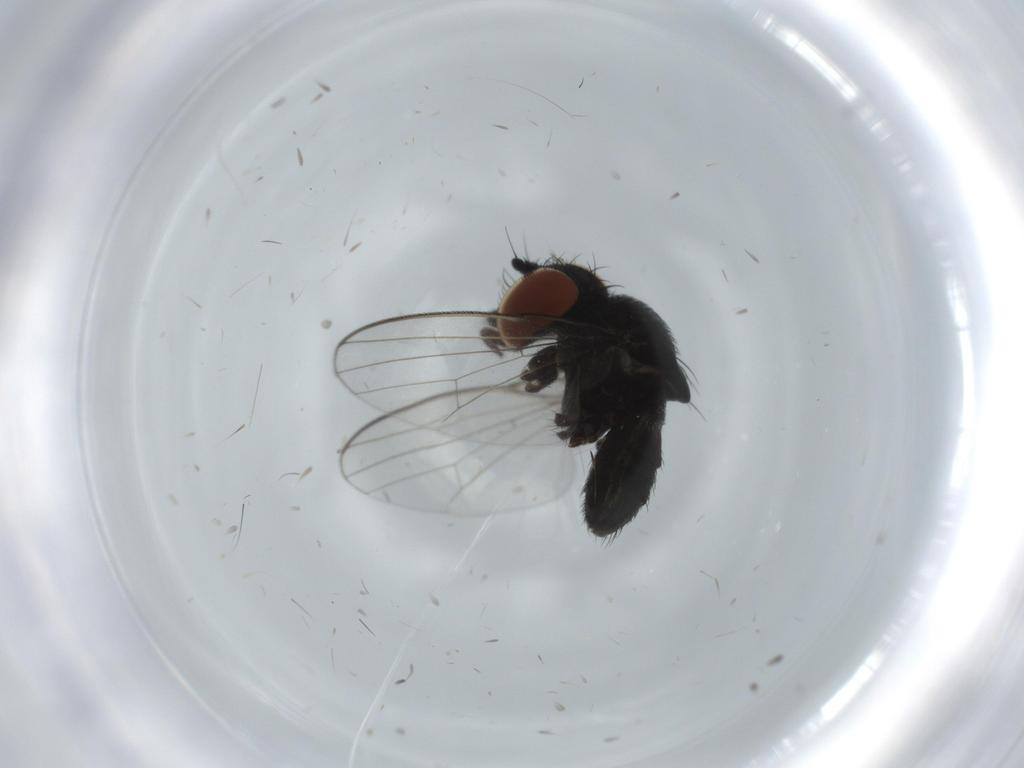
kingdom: Animalia
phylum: Arthropoda
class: Insecta
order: Diptera
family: Milichiidae
